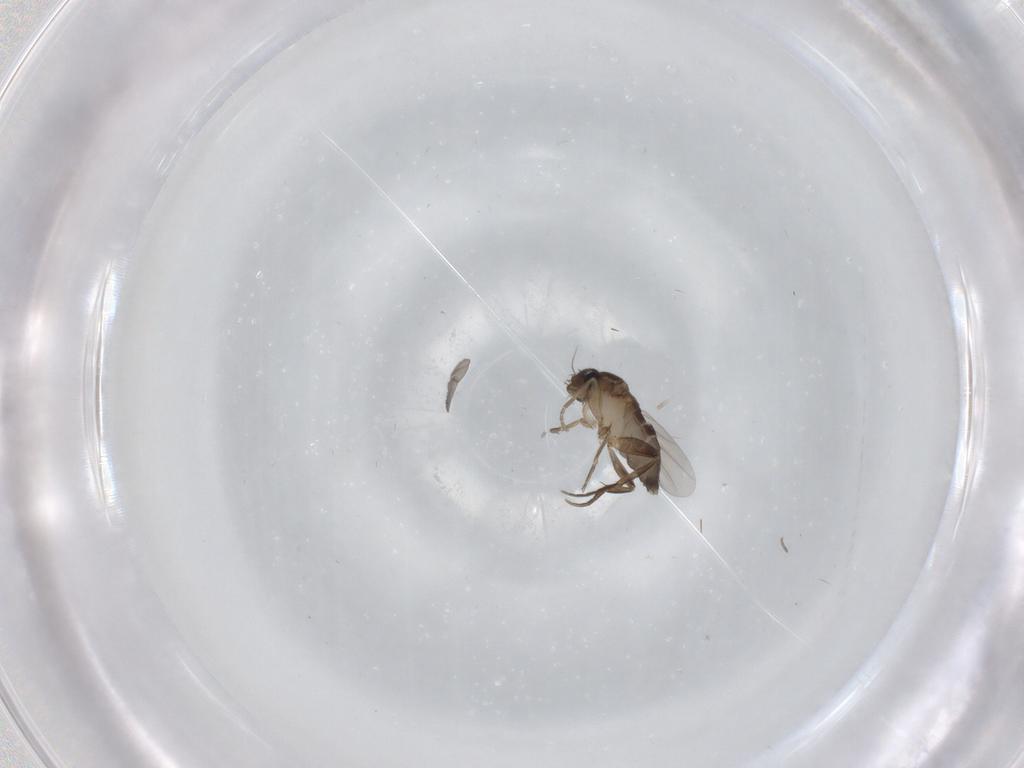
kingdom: Animalia
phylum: Arthropoda
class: Insecta
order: Diptera
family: Phoridae
